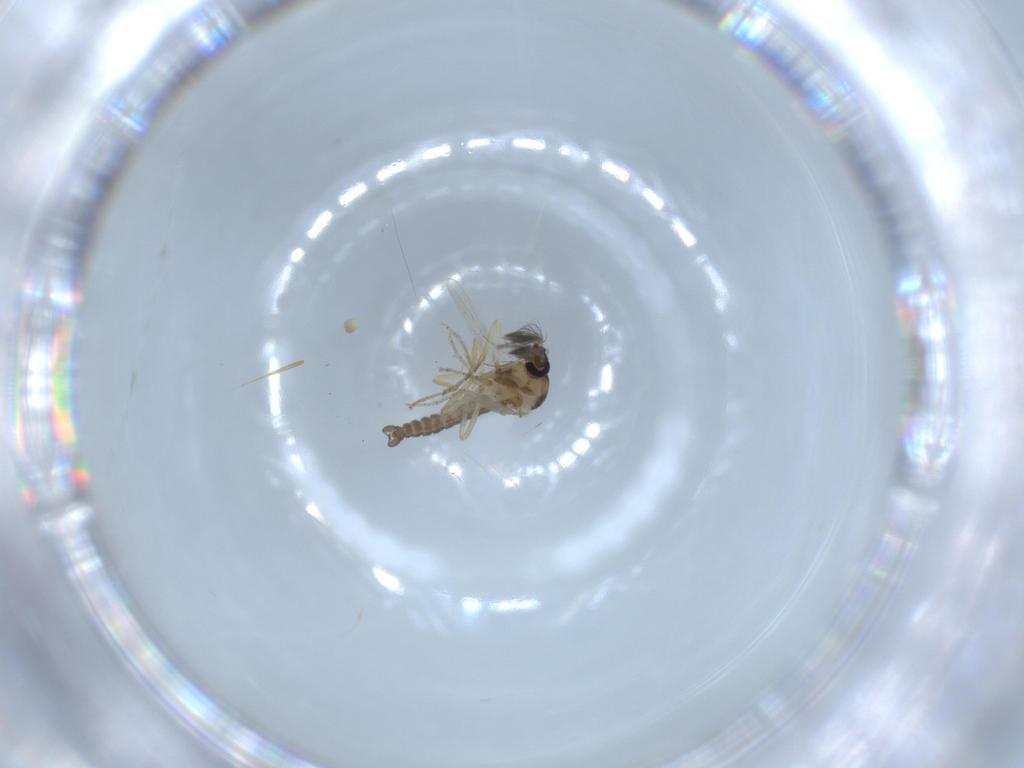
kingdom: Animalia
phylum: Arthropoda
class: Insecta
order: Diptera
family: Ceratopogonidae
